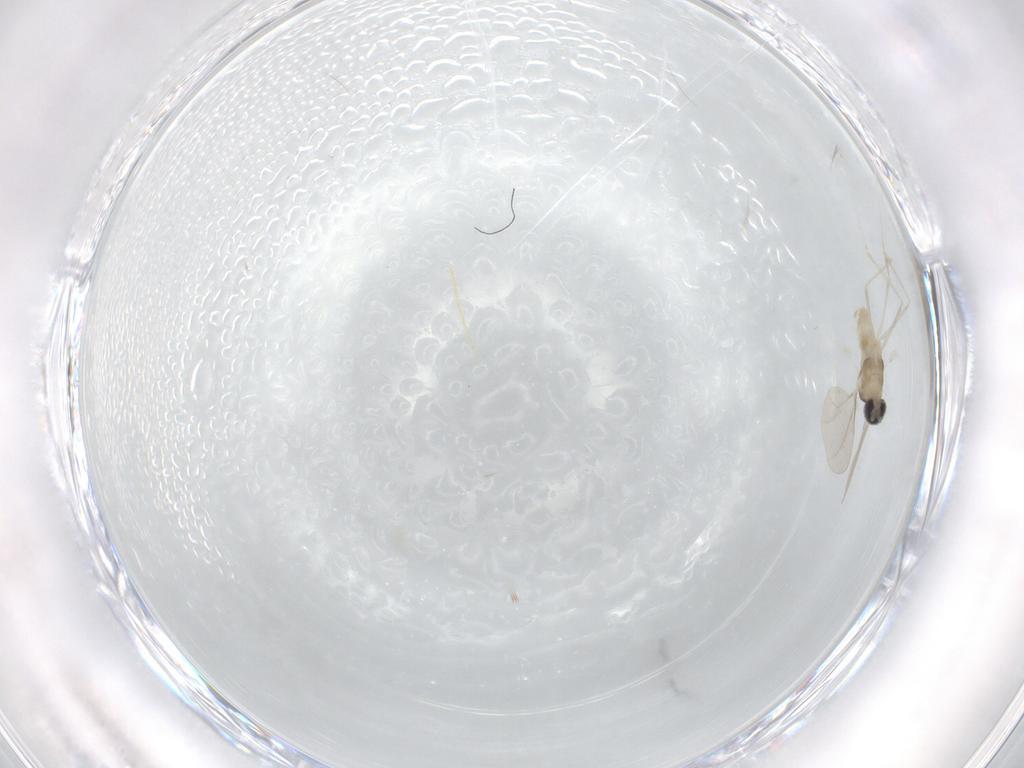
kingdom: Animalia
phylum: Arthropoda
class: Insecta
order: Diptera
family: Cecidomyiidae
